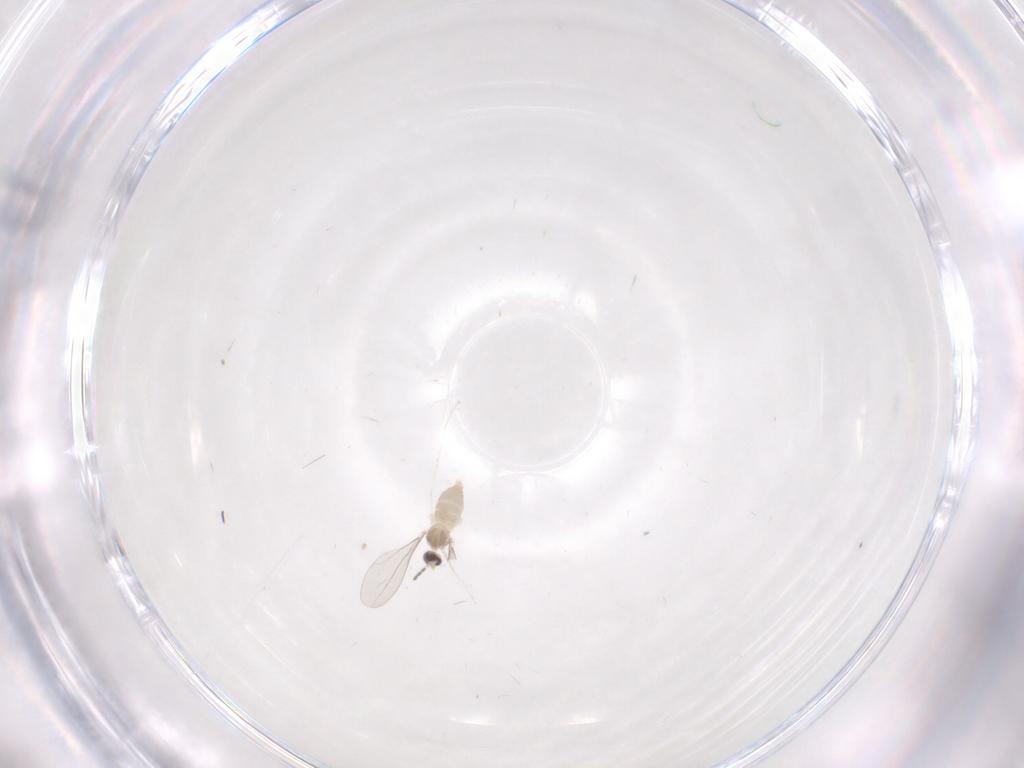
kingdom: Animalia
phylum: Arthropoda
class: Insecta
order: Diptera
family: Cecidomyiidae
